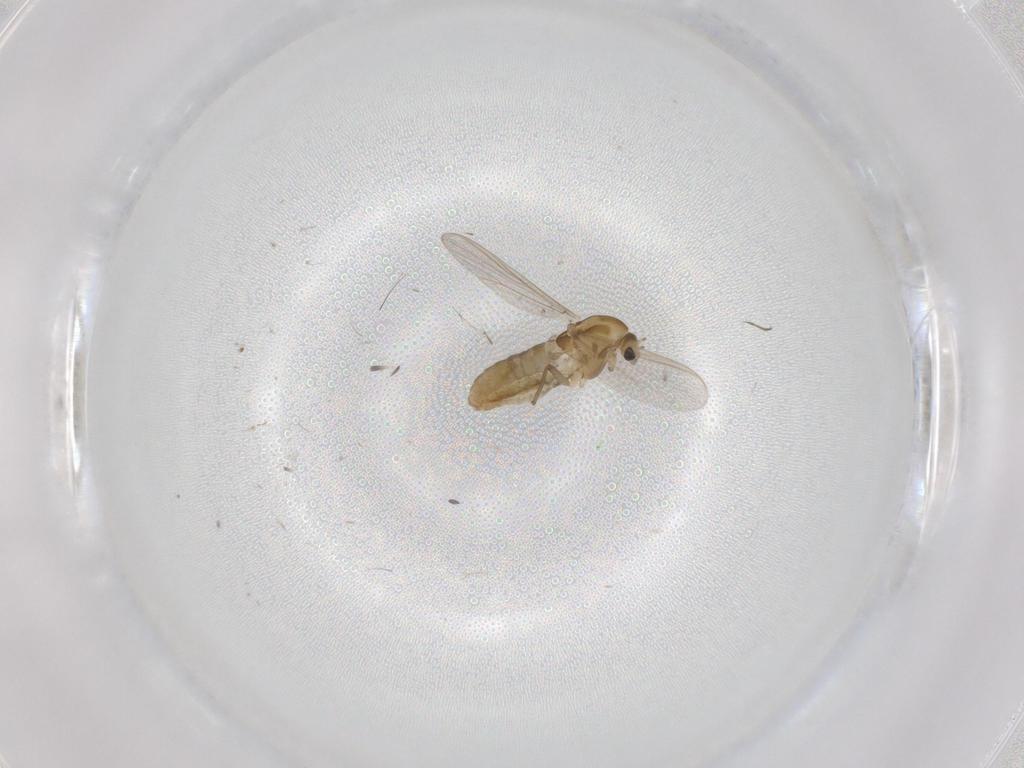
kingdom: Animalia
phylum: Arthropoda
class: Insecta
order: Diptera
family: Chironomidae
